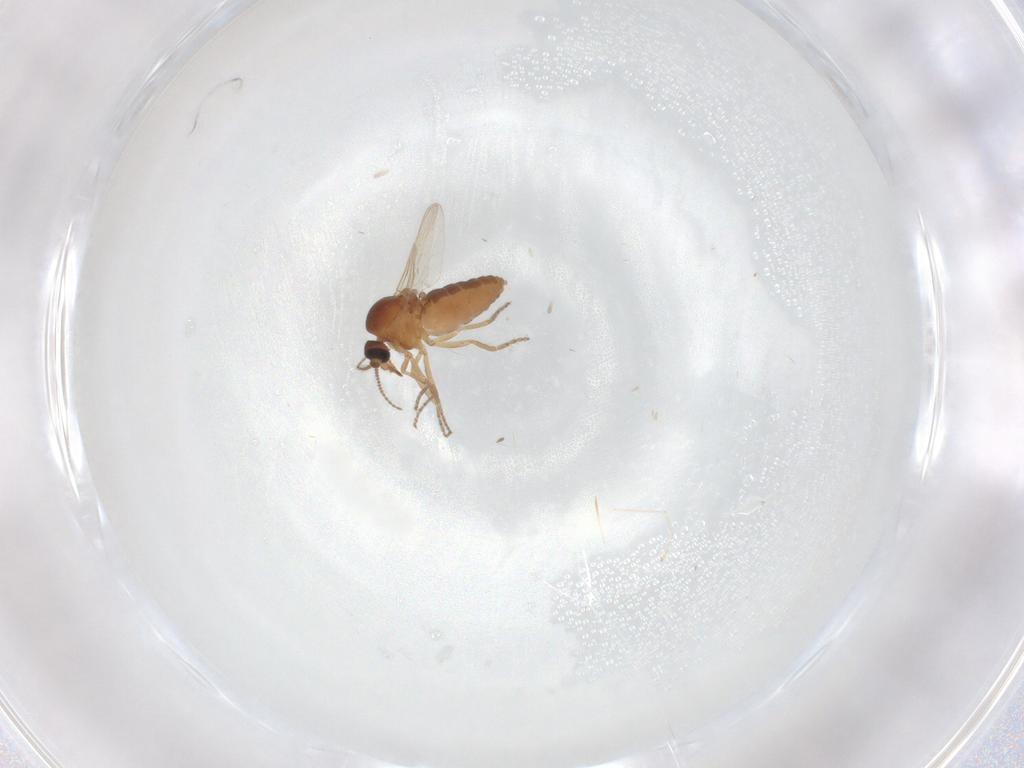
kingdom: Animalia
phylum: Arthropoda
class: Insecta
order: Diptera
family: Ceratopogonidae
